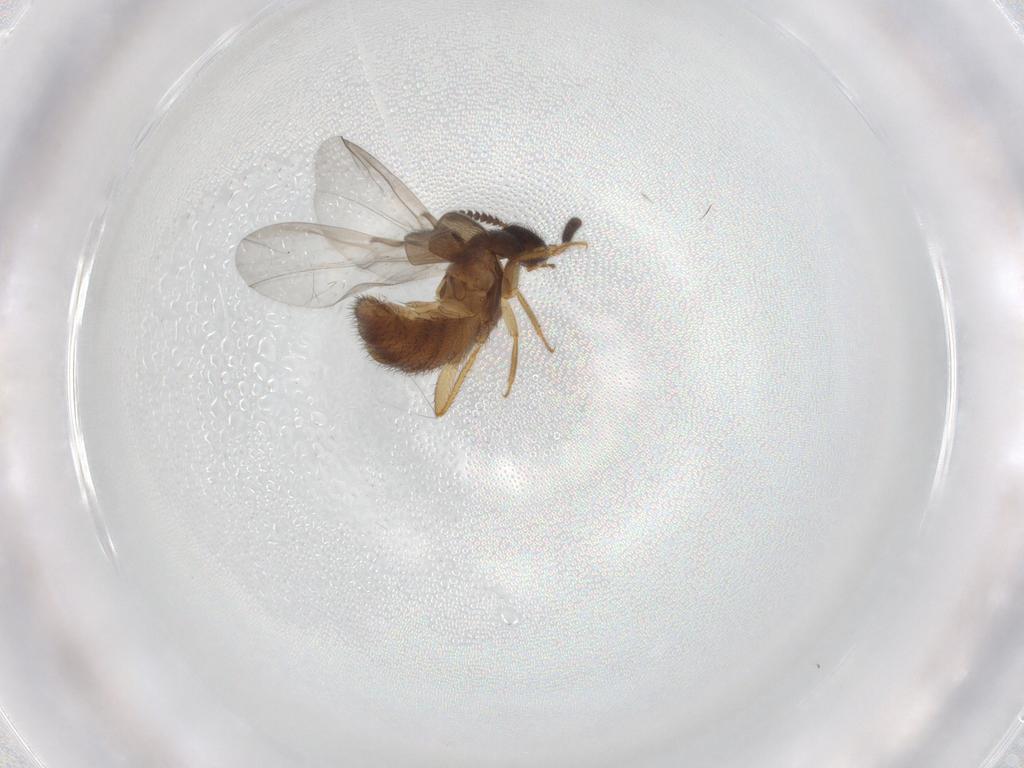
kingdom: Animalia
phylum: Arthropoda
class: Insecta
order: Coleoptera
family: Staphylinidae
